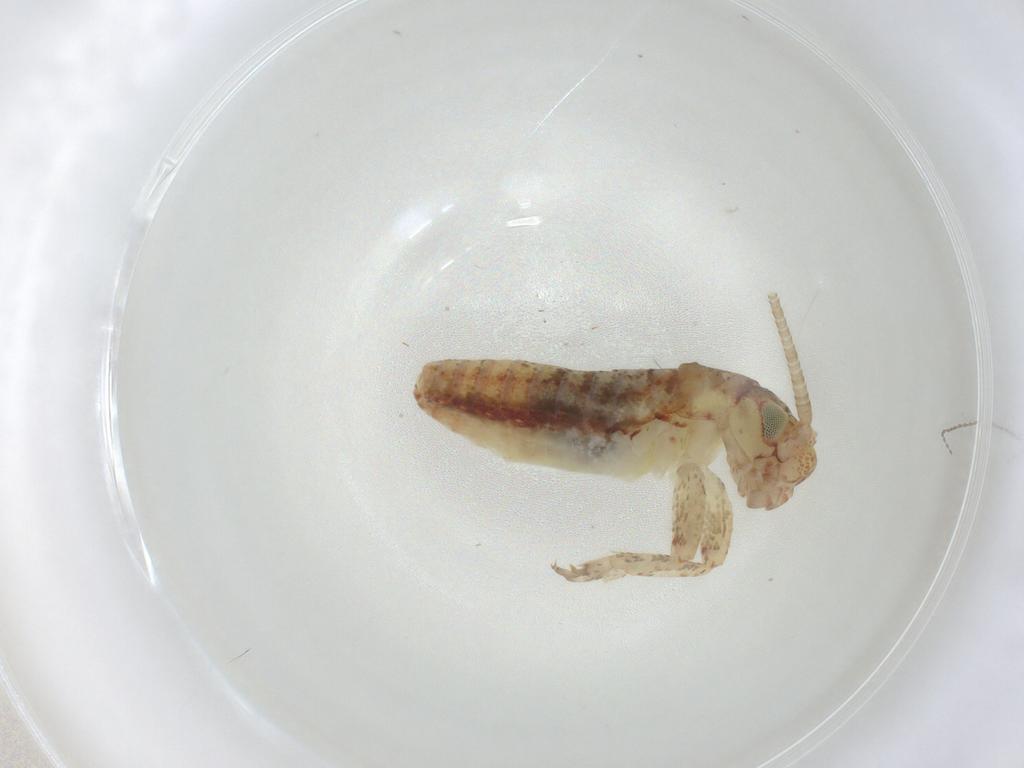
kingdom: Animalia
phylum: Arthropoda
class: Insecta
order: Orthoptera
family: Mogoplistidae
